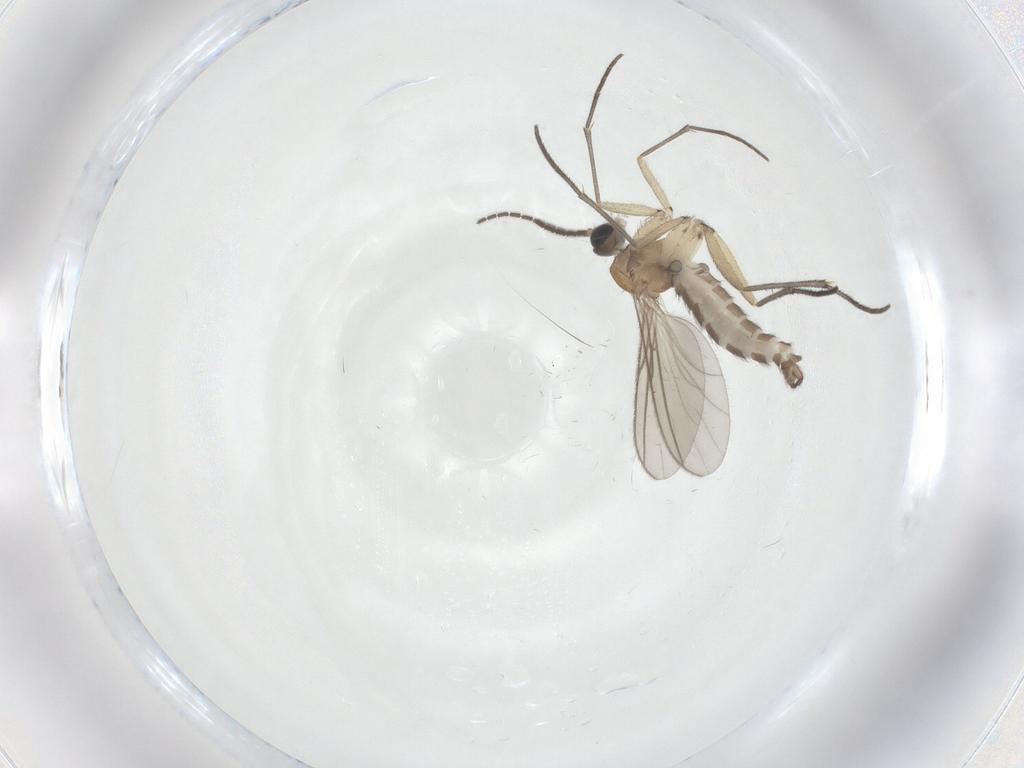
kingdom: Animalia
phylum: Arthropoda
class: Insecta
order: Diptera
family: Sciaridae
